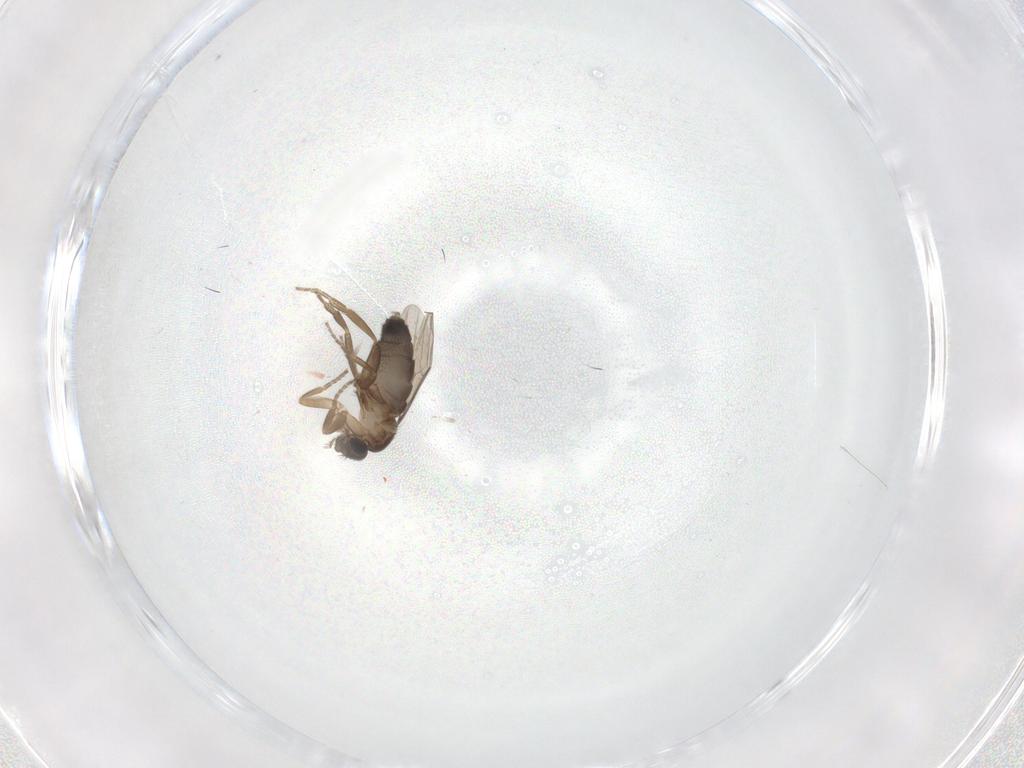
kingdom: Animalia
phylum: Arthropoda
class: Insecta
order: Diptera
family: Phoridae
